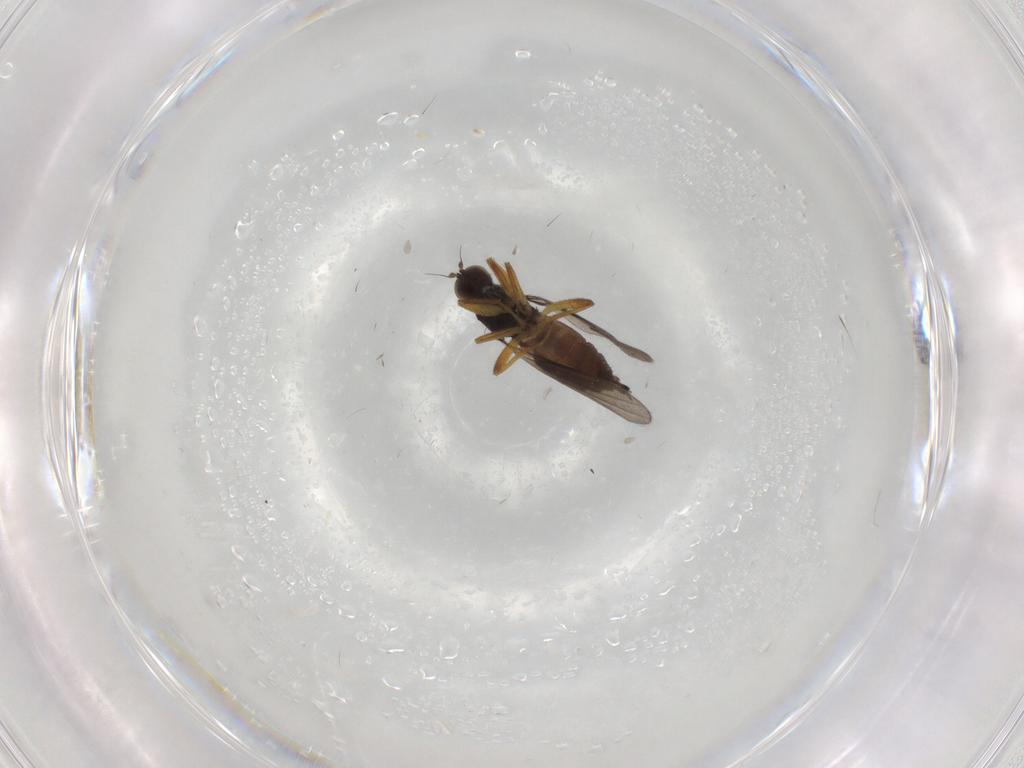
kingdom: Animalia
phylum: Arthropoda
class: Insecta
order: Diptera
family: Hybotidae
